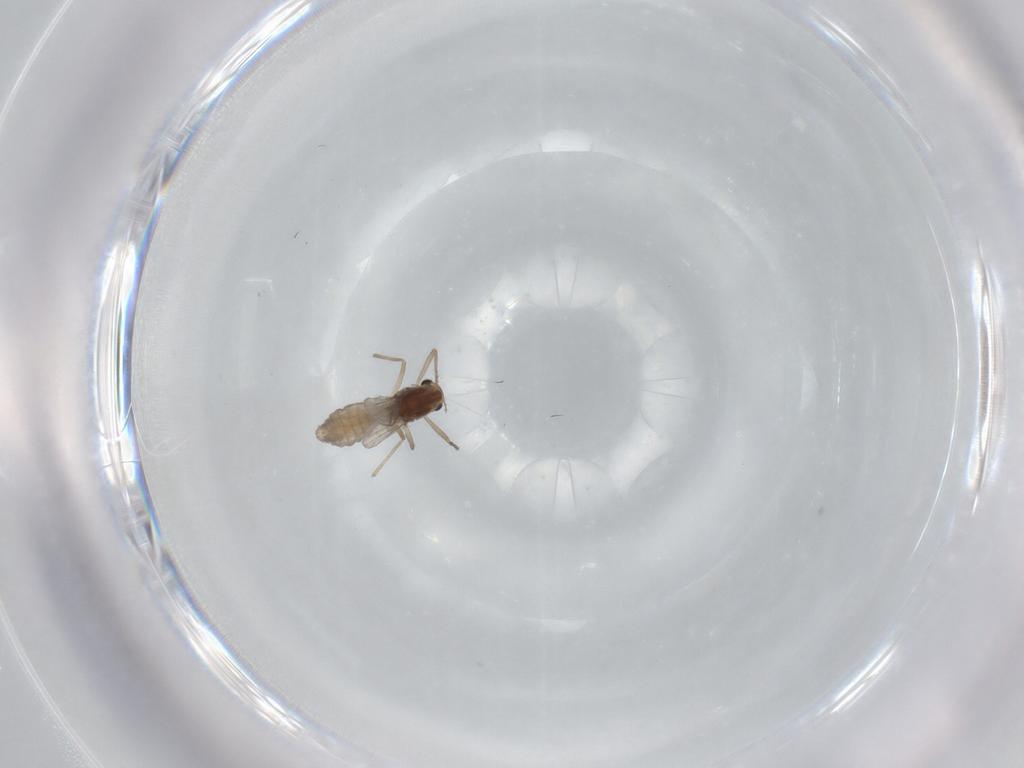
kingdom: Animalia
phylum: Arthropoda
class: Insecta
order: Diptera
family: Chironomidae
